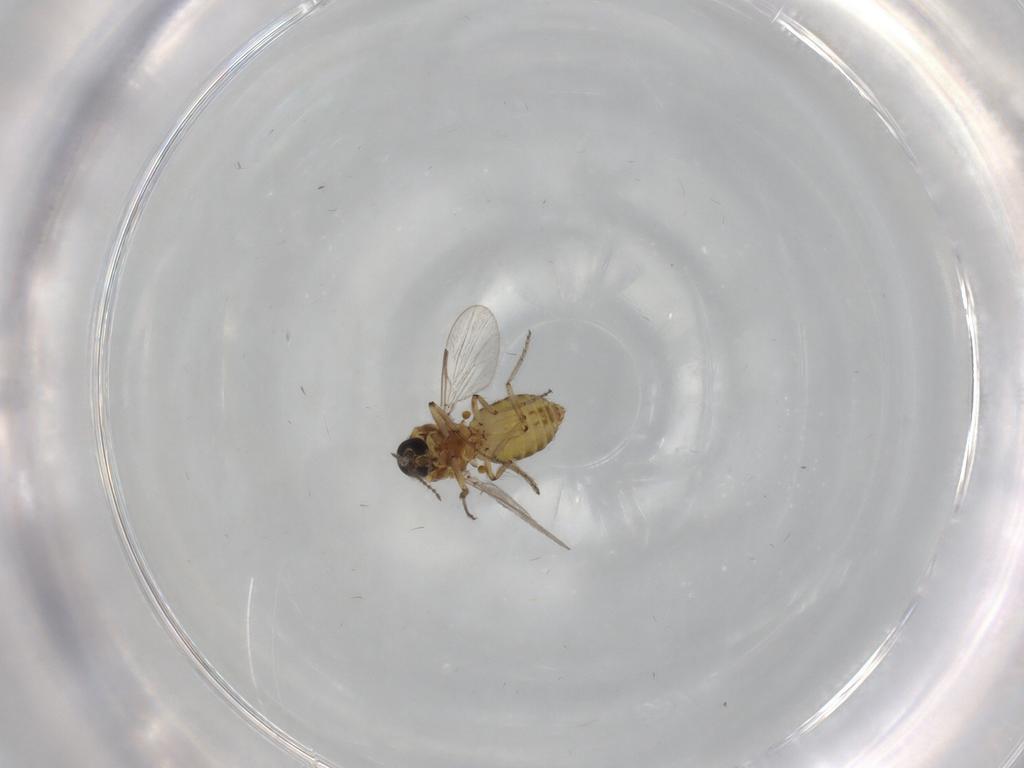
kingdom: Animalia
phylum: Arthropoda
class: Insecta
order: Diptera
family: Ceratopogonidae
